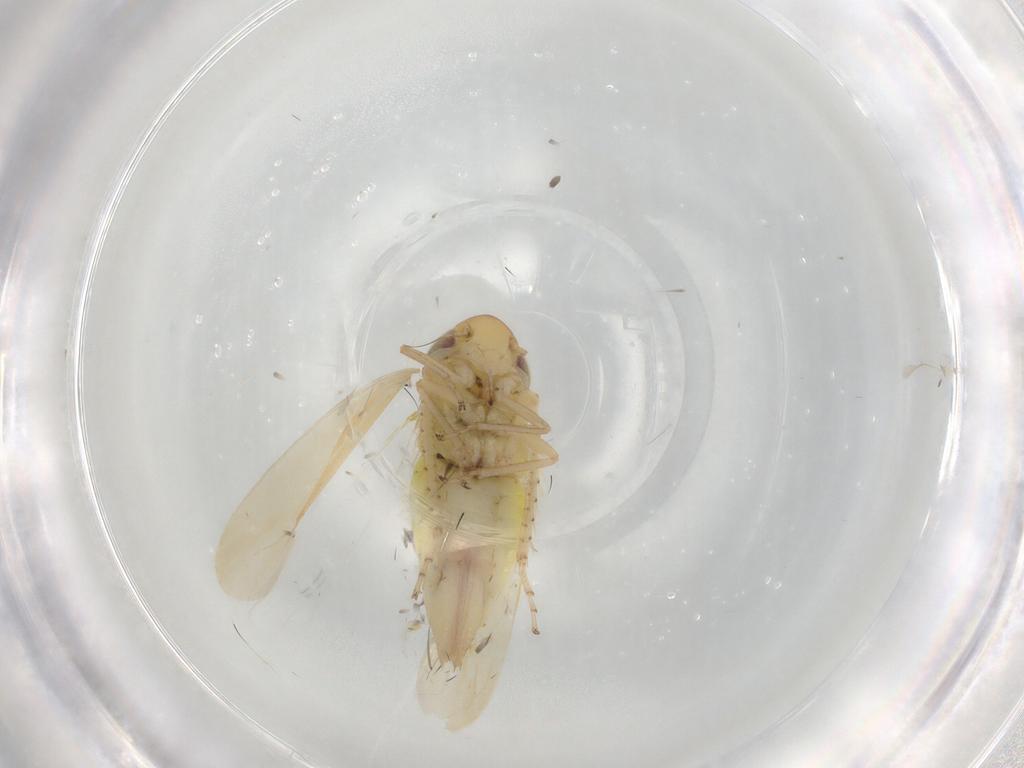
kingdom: Animalia
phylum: Arthropoda
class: Insecta
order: Hemiptera
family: Cicadellidae
